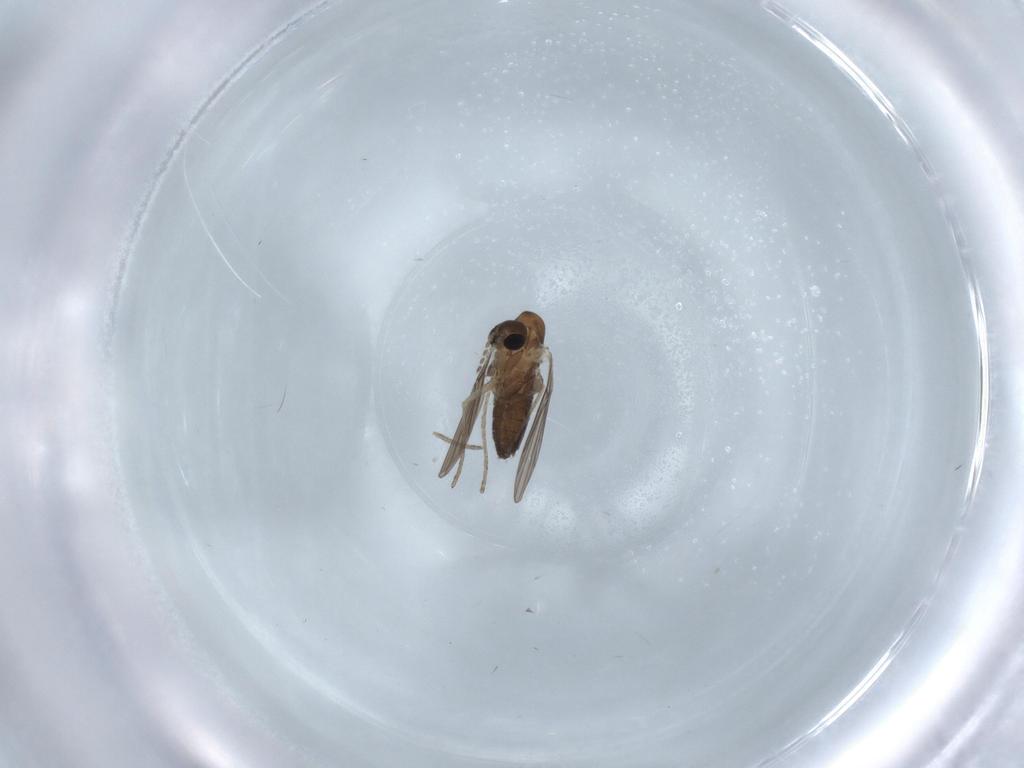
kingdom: Animalia
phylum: Arthropoda
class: Insecta
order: Diptera
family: Psychodidae
